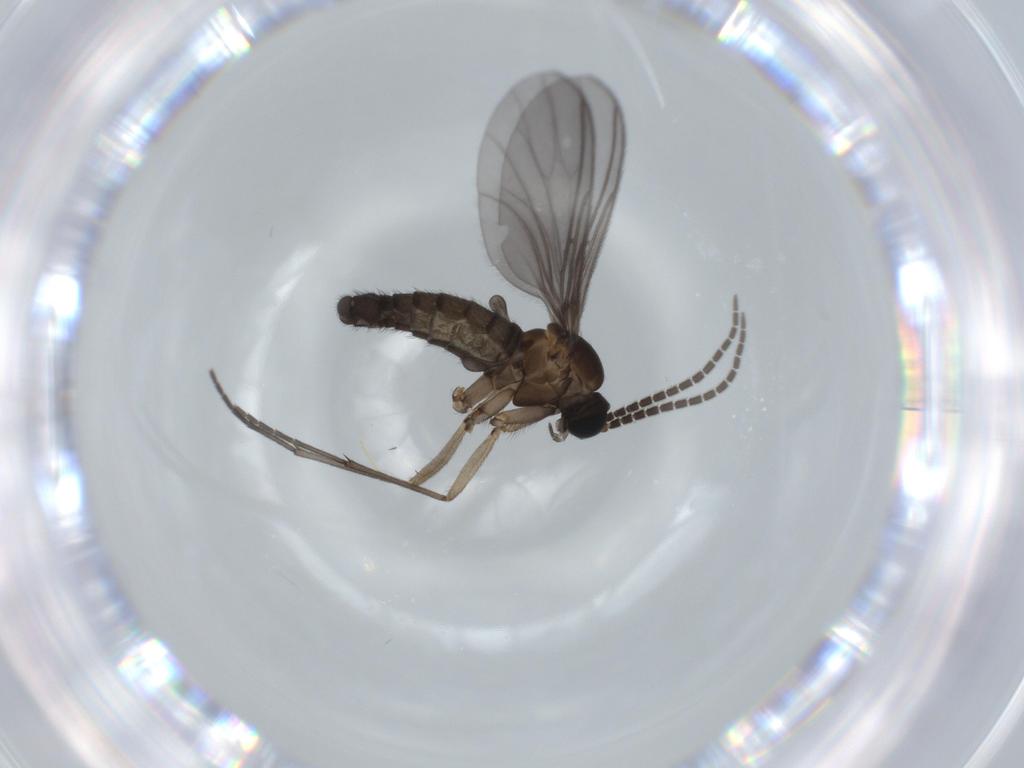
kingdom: Animalia
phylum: Arthropoda
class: Insecta
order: Diptera
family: Sciaridae
